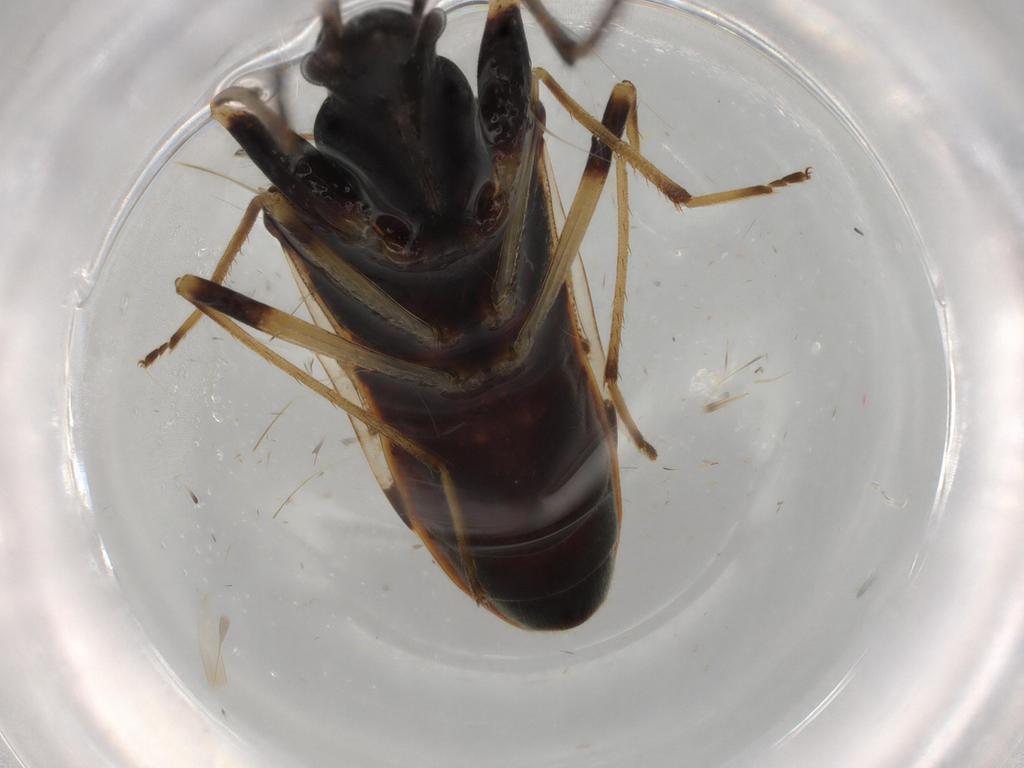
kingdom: Animalia
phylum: Arthropoda
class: Insecta
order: Hemiptera
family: Rhyparochromidae
